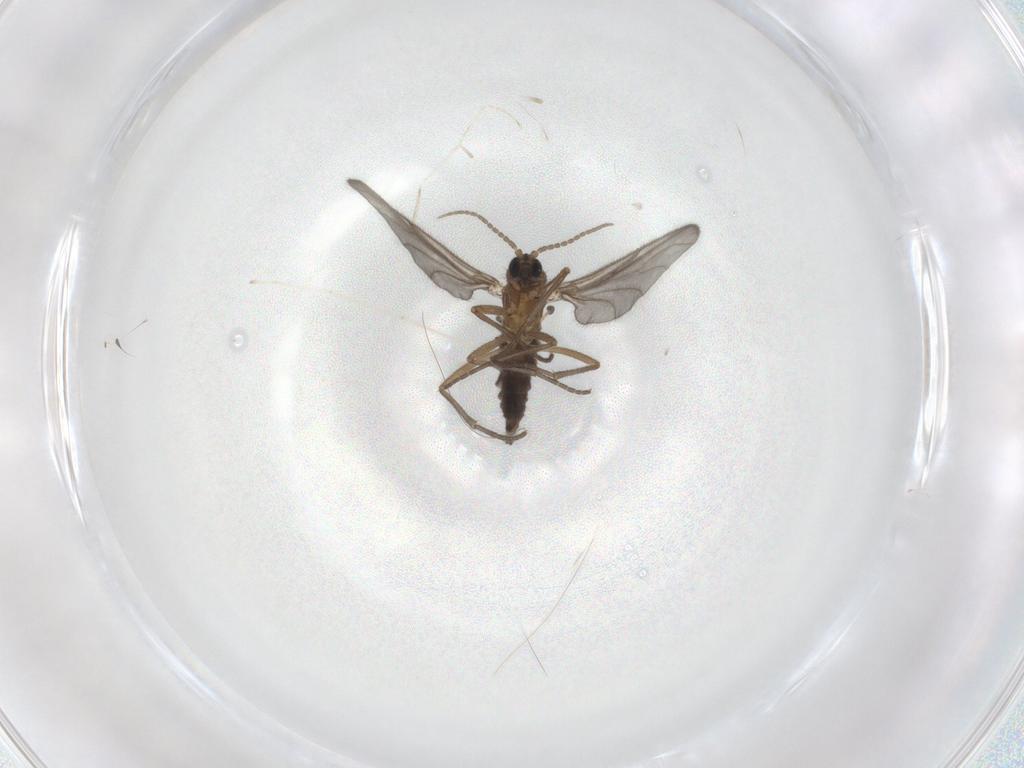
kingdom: Animalia
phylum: Arthropoda
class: Insecta
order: Diptera
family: Sciaridae
